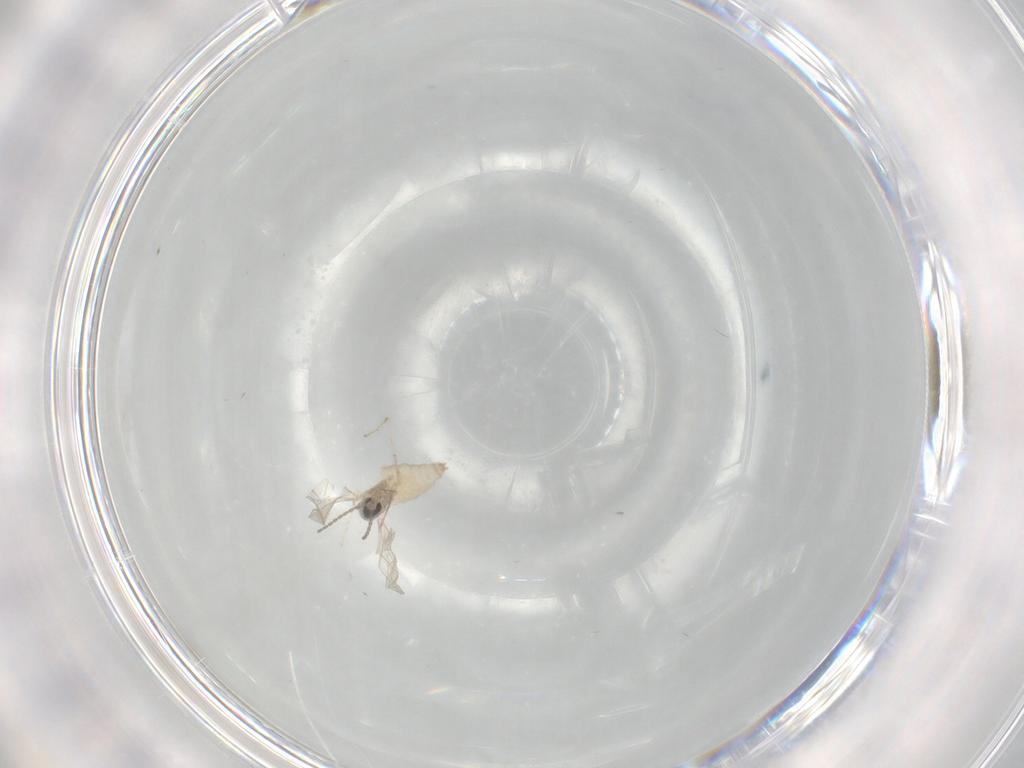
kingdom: Animalia
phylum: Arthropoda
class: Insecta
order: Diptera
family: Cecidomyiidae
